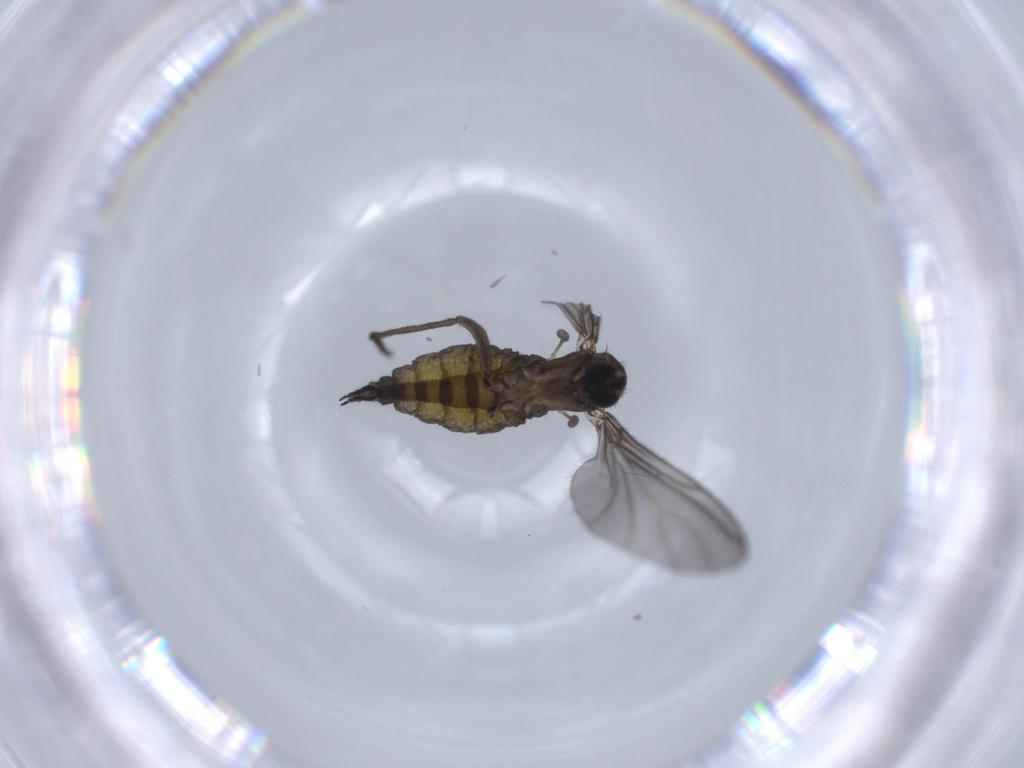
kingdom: Animalia
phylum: Arthropoda
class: Insecta
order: Diptera
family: Sciaridae
